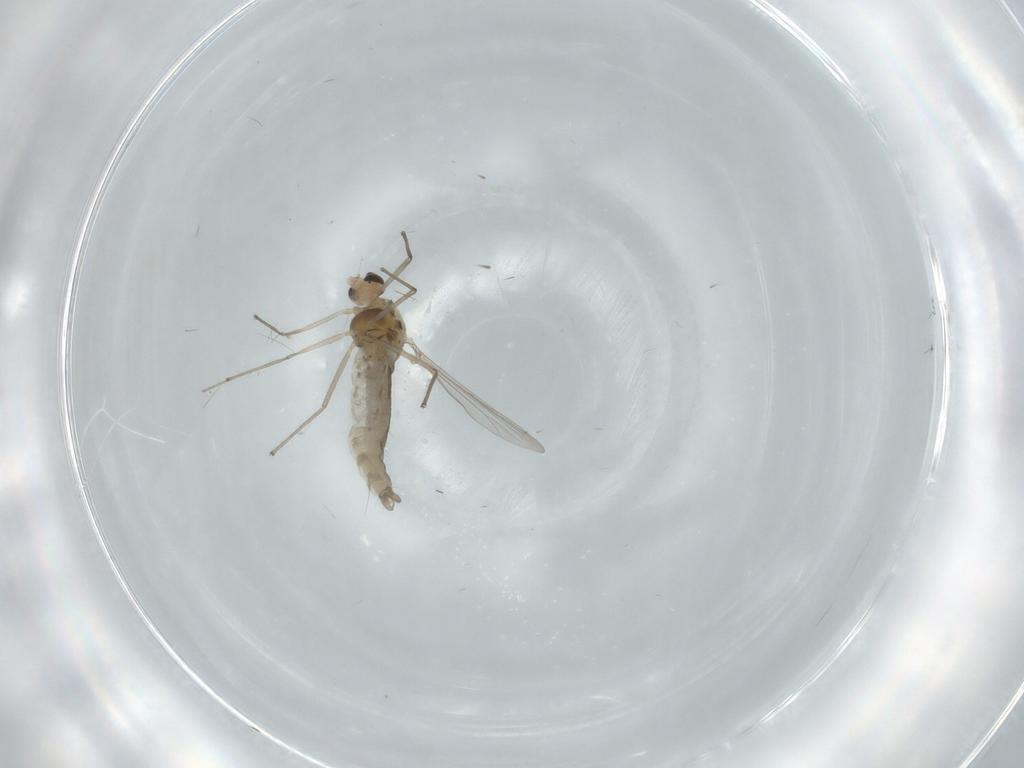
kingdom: Animalia
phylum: Arthropoda
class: Insecta
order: Diptera
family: Chironomidae
